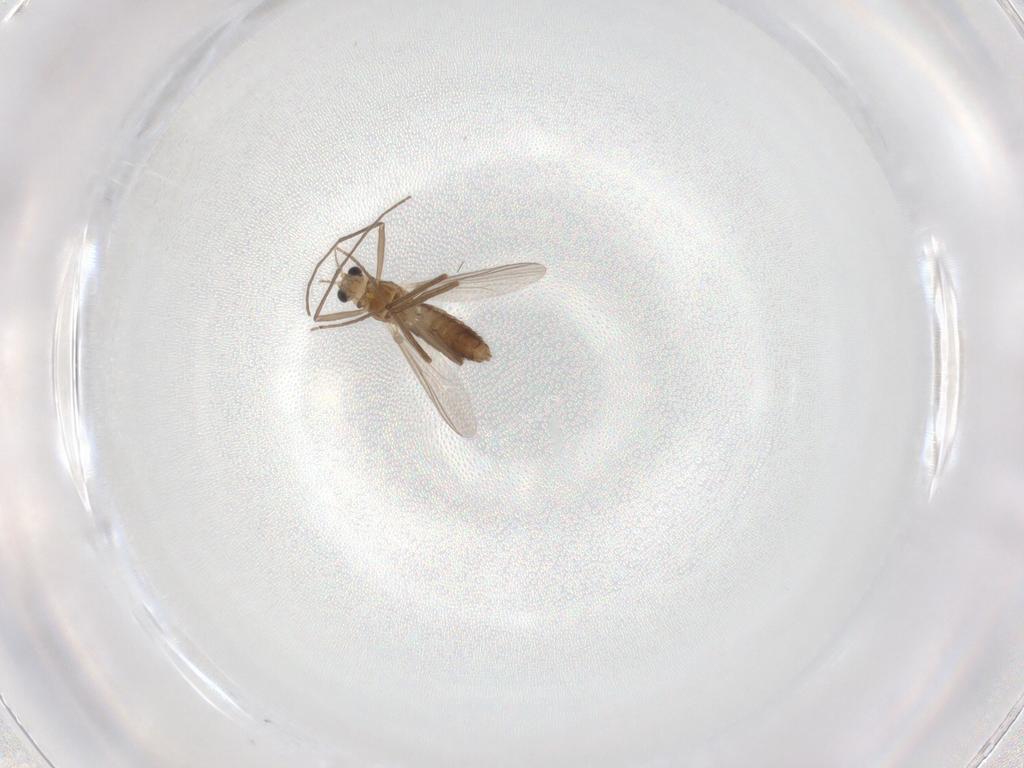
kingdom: Animalia
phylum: Arthropoda
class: Insecta
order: Diptera
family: Chironomidae
